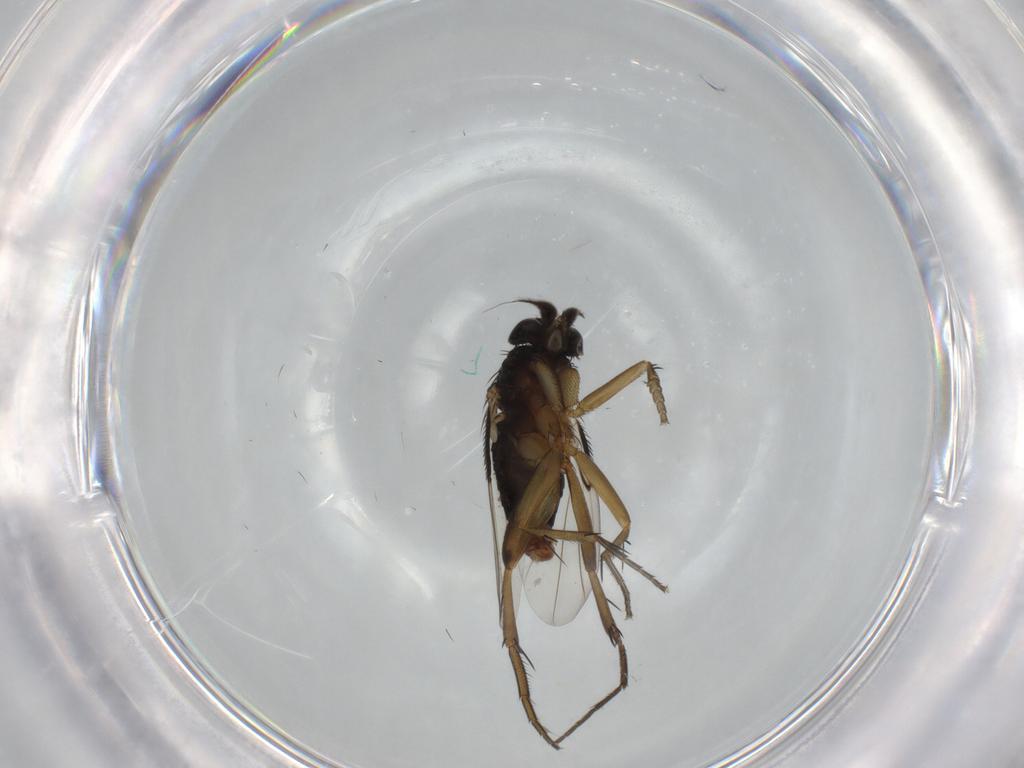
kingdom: Animalia
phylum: Arthropoda
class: Insecta
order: Diptera
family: Phoridae
